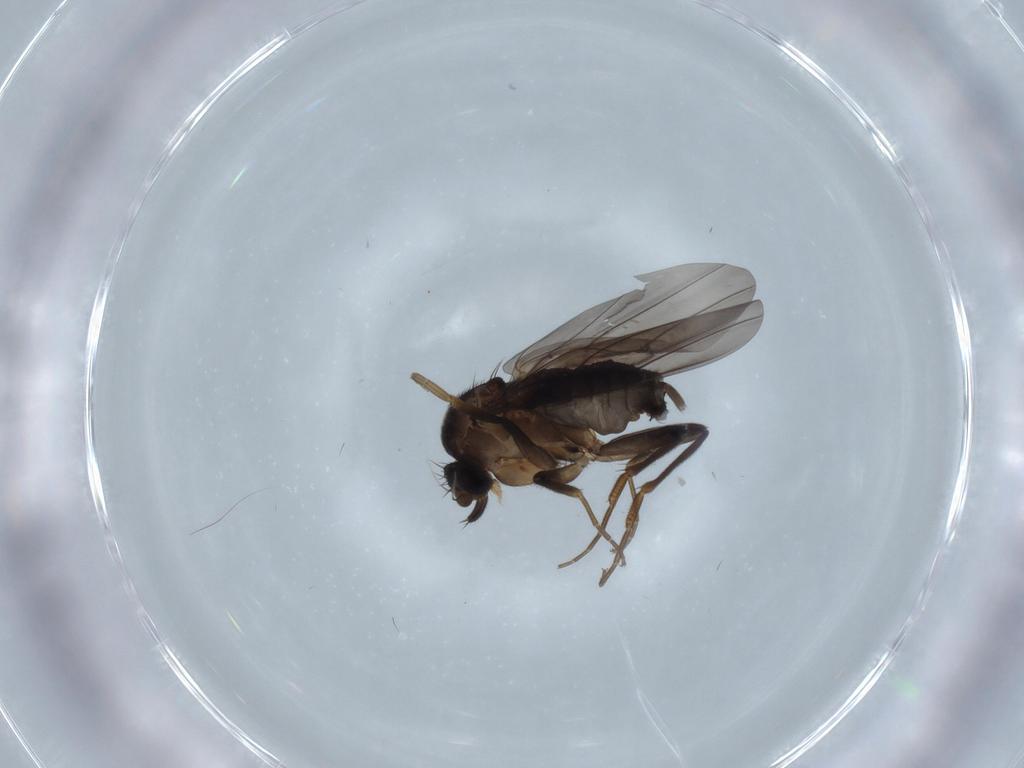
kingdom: Animalia
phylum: Arthropoda
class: Insecta
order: Diptera
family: Phoridae
